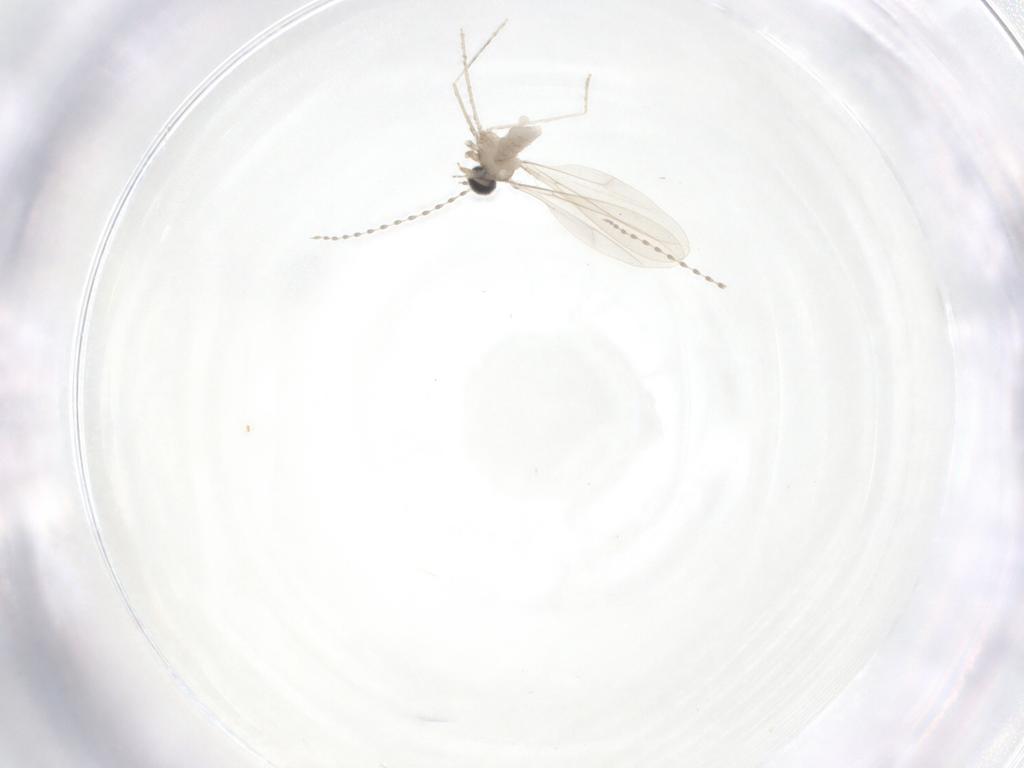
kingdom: Animalia
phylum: Arthropoda
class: Insecta
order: Diptera
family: Cecidomyiidae
